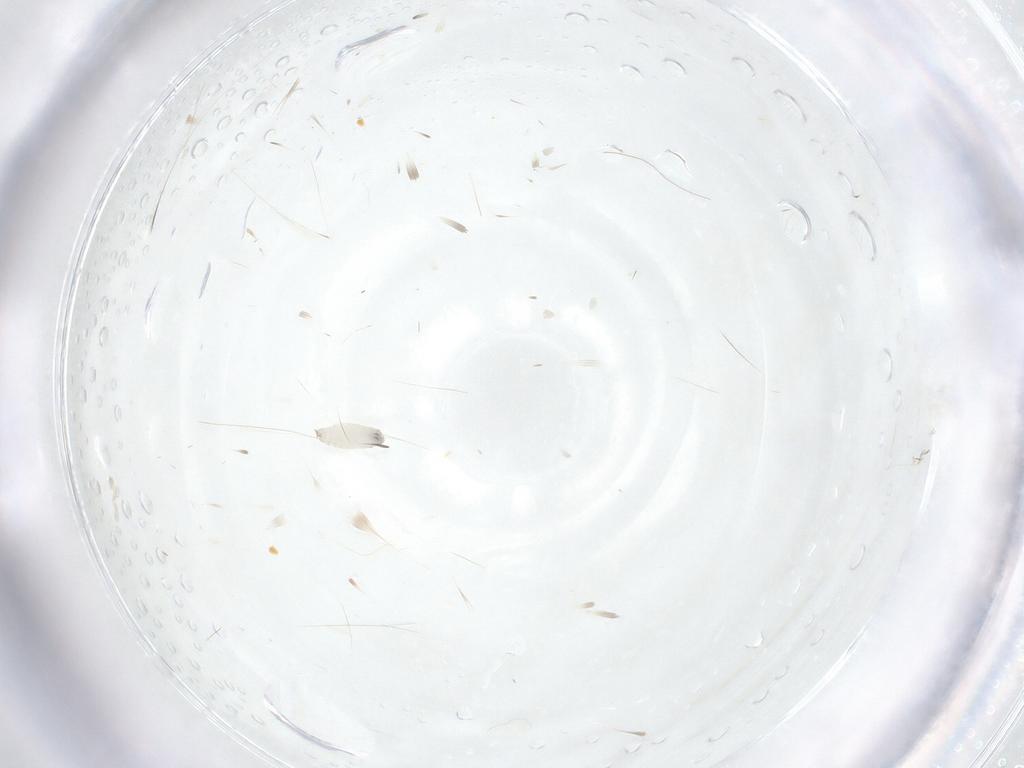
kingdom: Animalia
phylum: Arthropoda
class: Insecta
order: Diptera
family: Tachinidae
